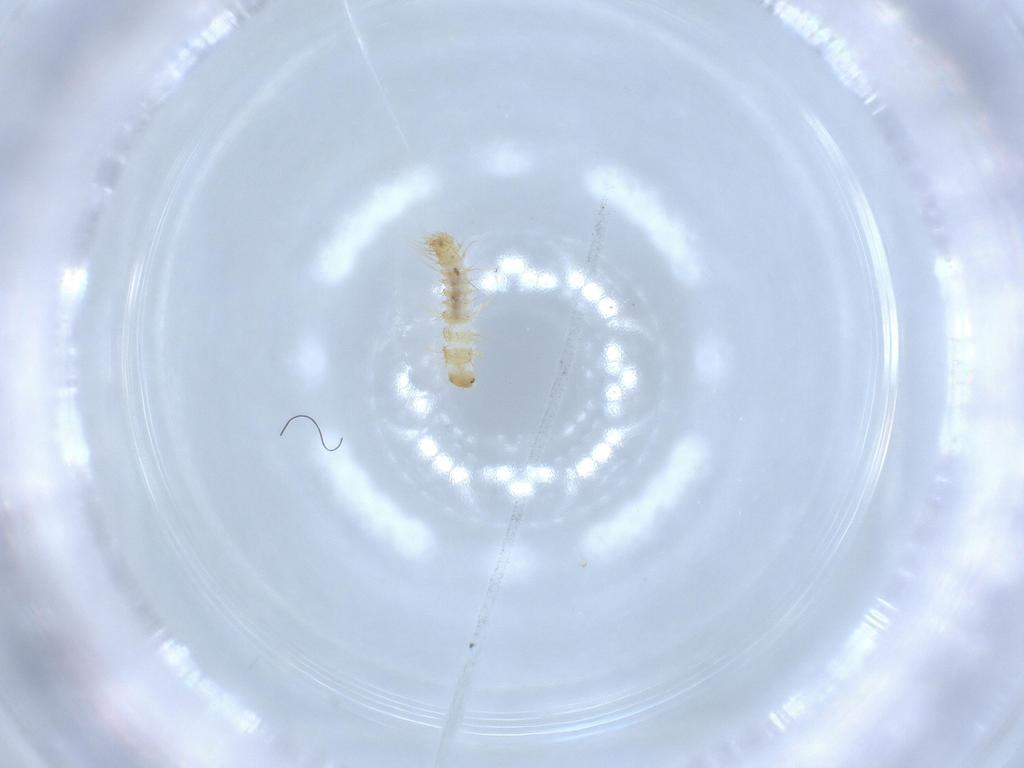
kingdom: Animalia
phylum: Arthropoda
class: Insecta
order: Coleoptera
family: Dermestidae
